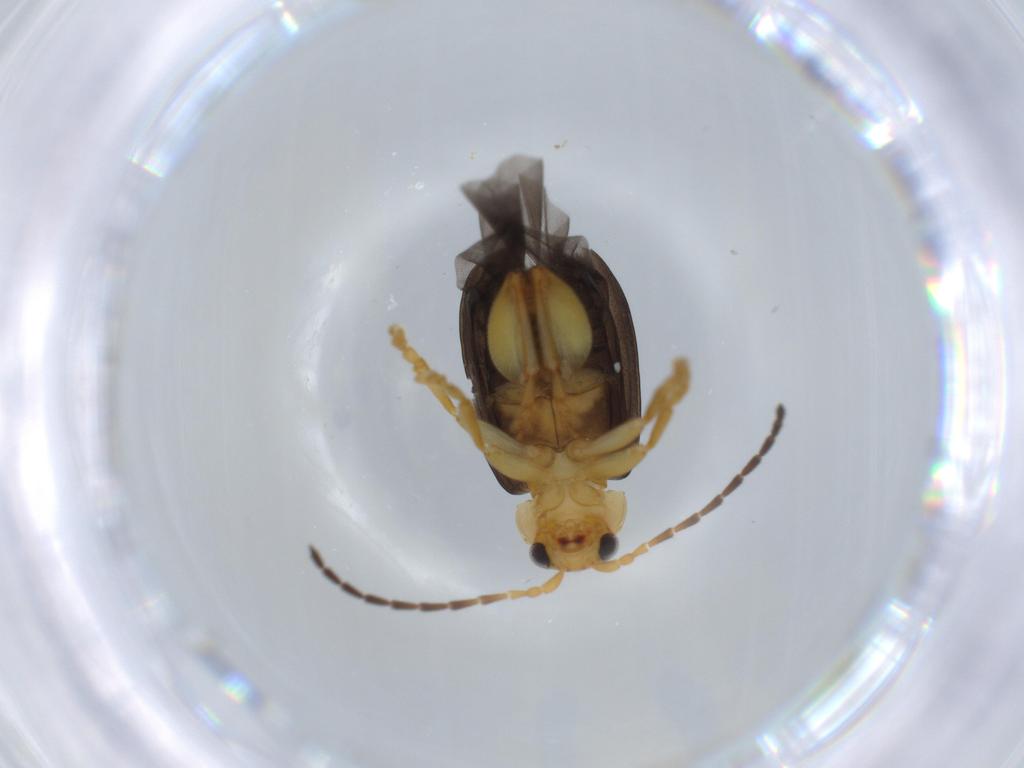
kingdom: Animalia
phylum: Arthropoda
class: Insecta
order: Coleoptera
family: Chrysomelidae
